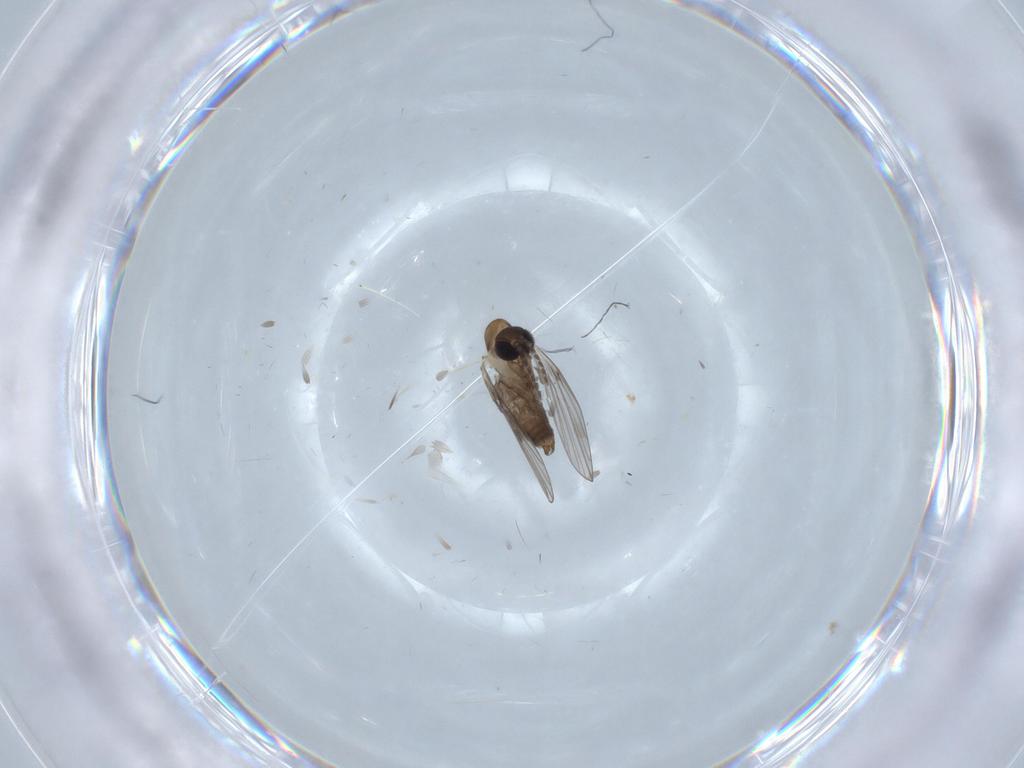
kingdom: Animalia
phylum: Arthropoda
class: Insecta
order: Diptera
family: Psychodidae
